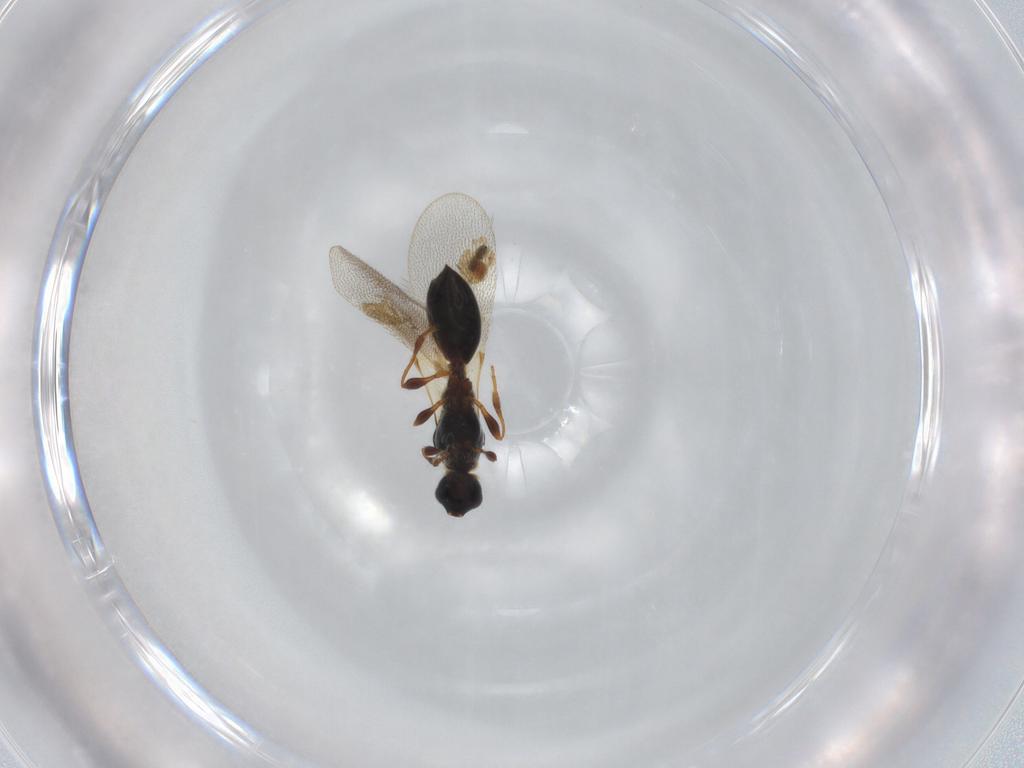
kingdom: Animalia
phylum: Arthropoda
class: Insecta
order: Hymenoptera
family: Diapriidae
